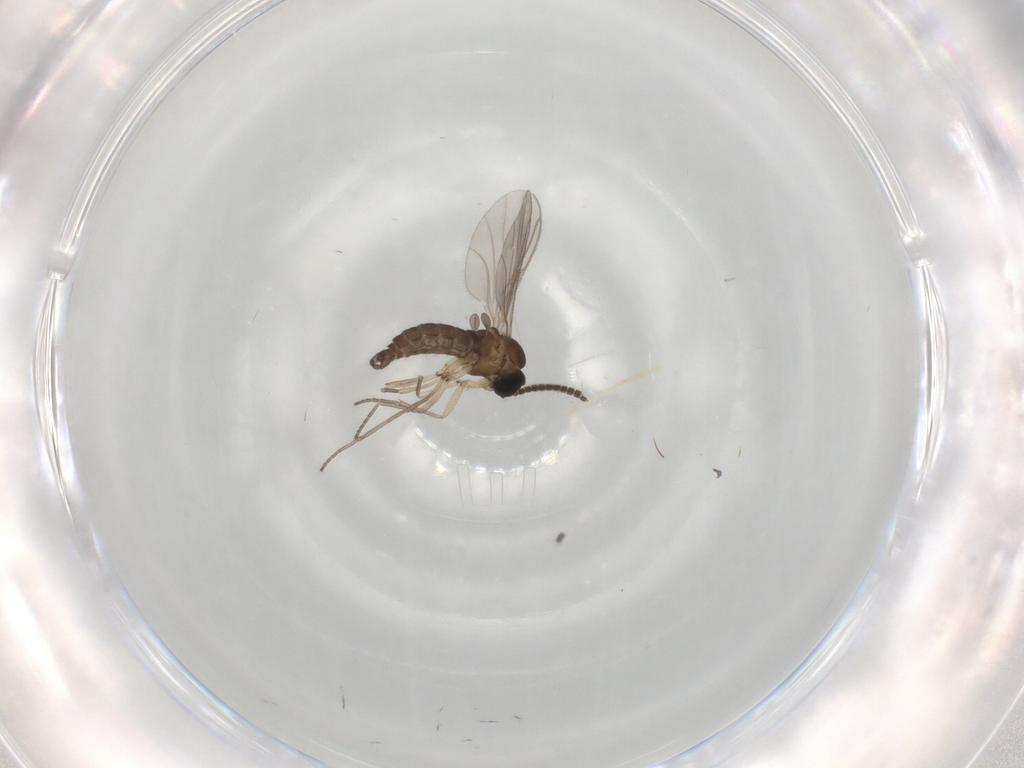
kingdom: Animalia
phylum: Arthropoda
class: Insecta
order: Diptera
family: Sciaridae
